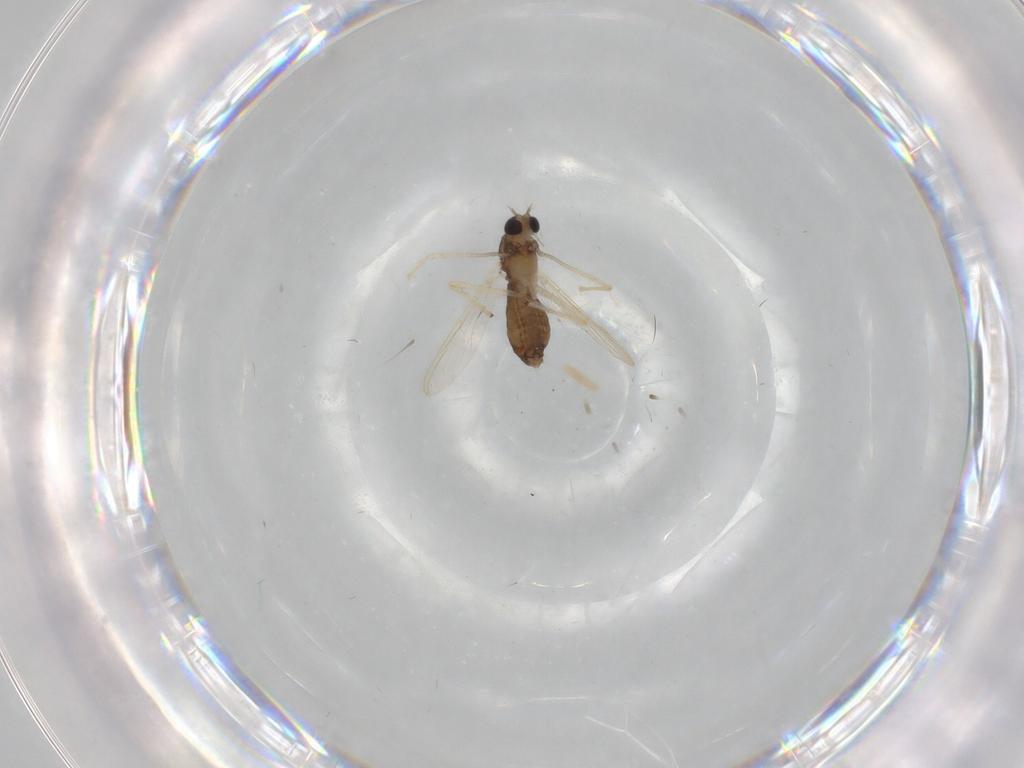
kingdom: Animalia
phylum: Arthropoda
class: Insecta
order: Diptera
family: Chironomidae
